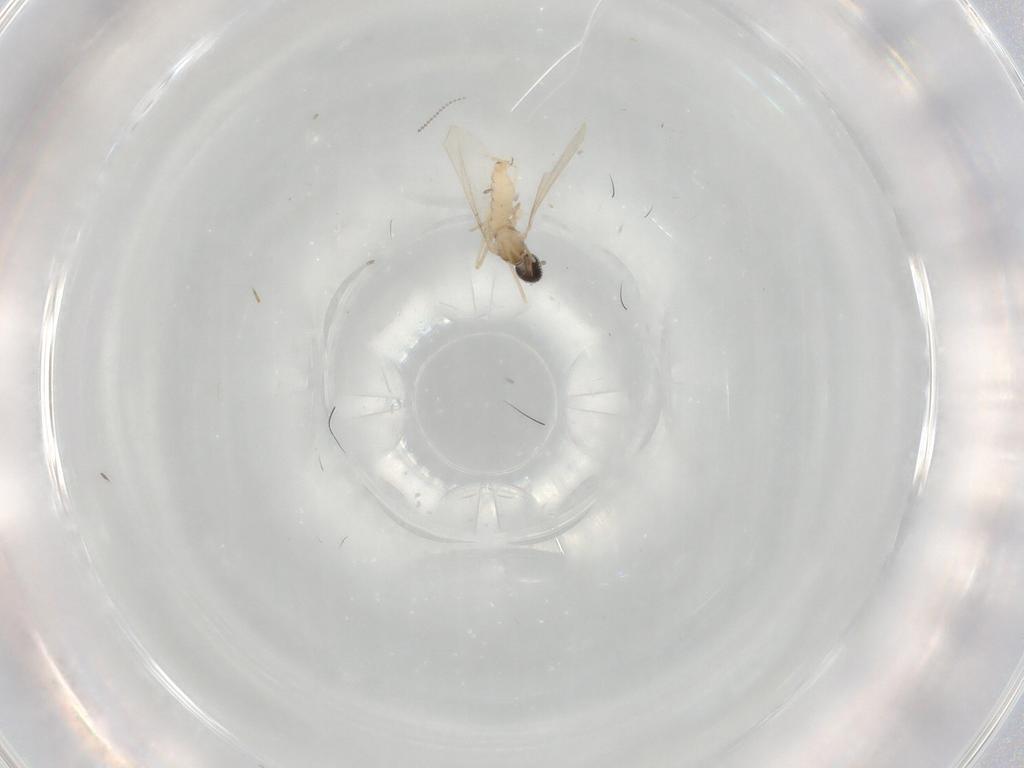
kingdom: Animalia
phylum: Arthropoda
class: Insecta
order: Diptera
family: Cecidomyiidae
